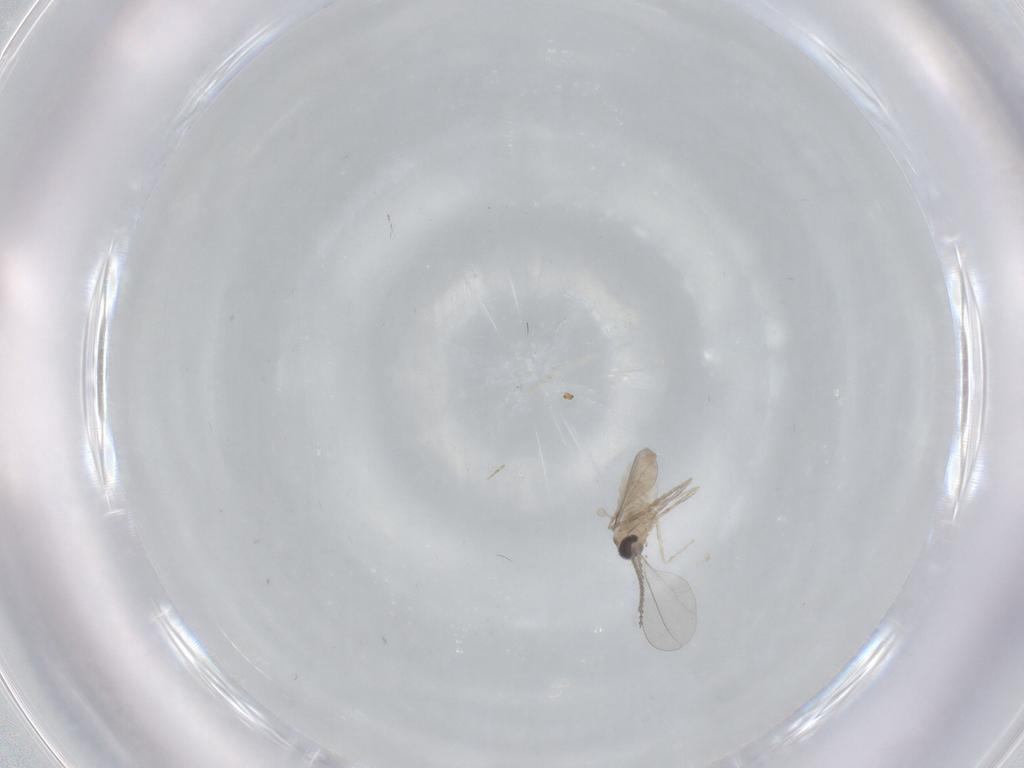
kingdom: Animalia
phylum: Arthropoda
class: Insecta
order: Diptera
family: Cecidomyiidae
